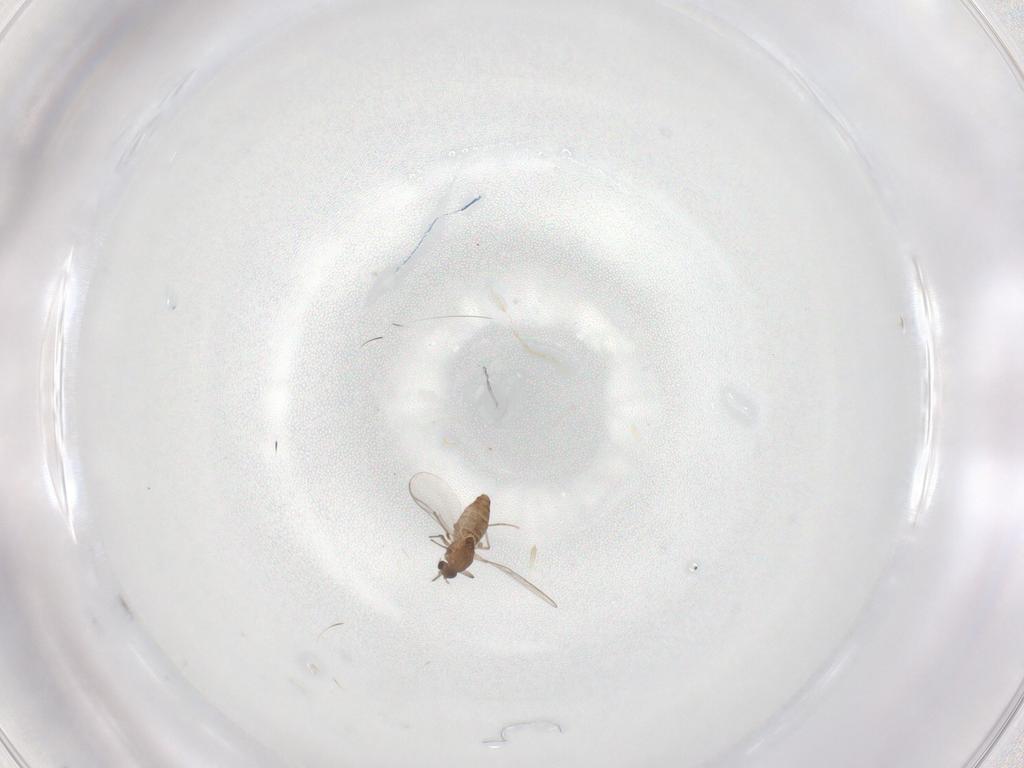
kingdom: Animalia
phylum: Arthropoda
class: Insecta
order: Diptera
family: Chironomidae
